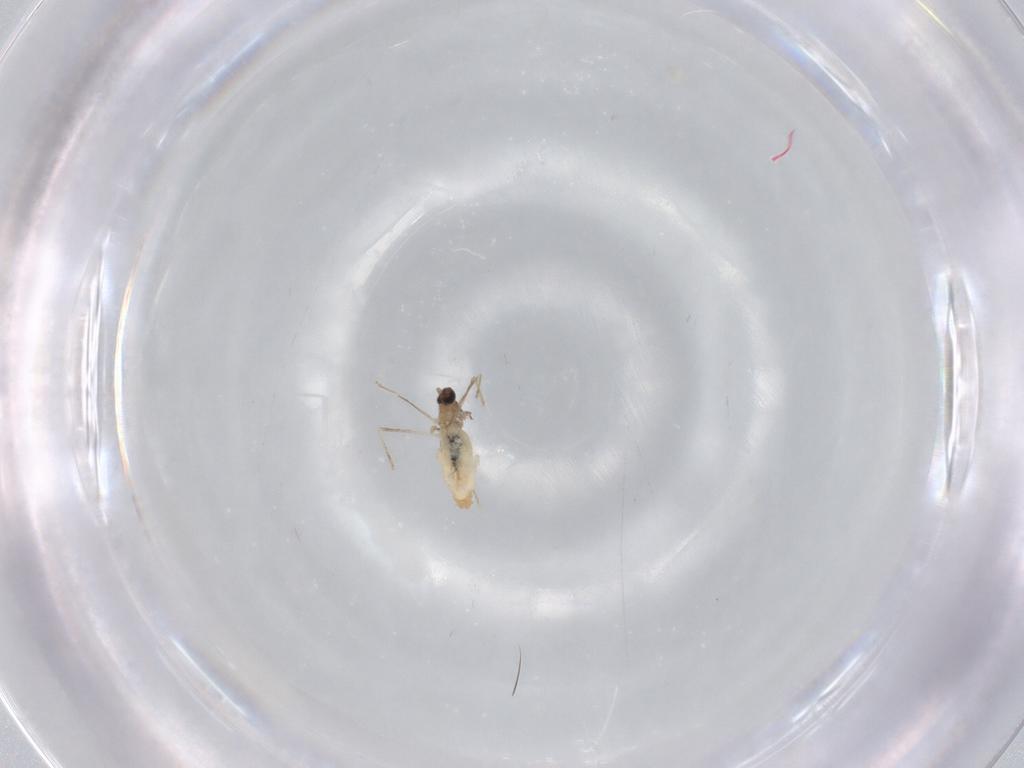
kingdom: Animalia
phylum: Arthropoda
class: Insecta
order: Diptera
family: Cecidomyiidae
